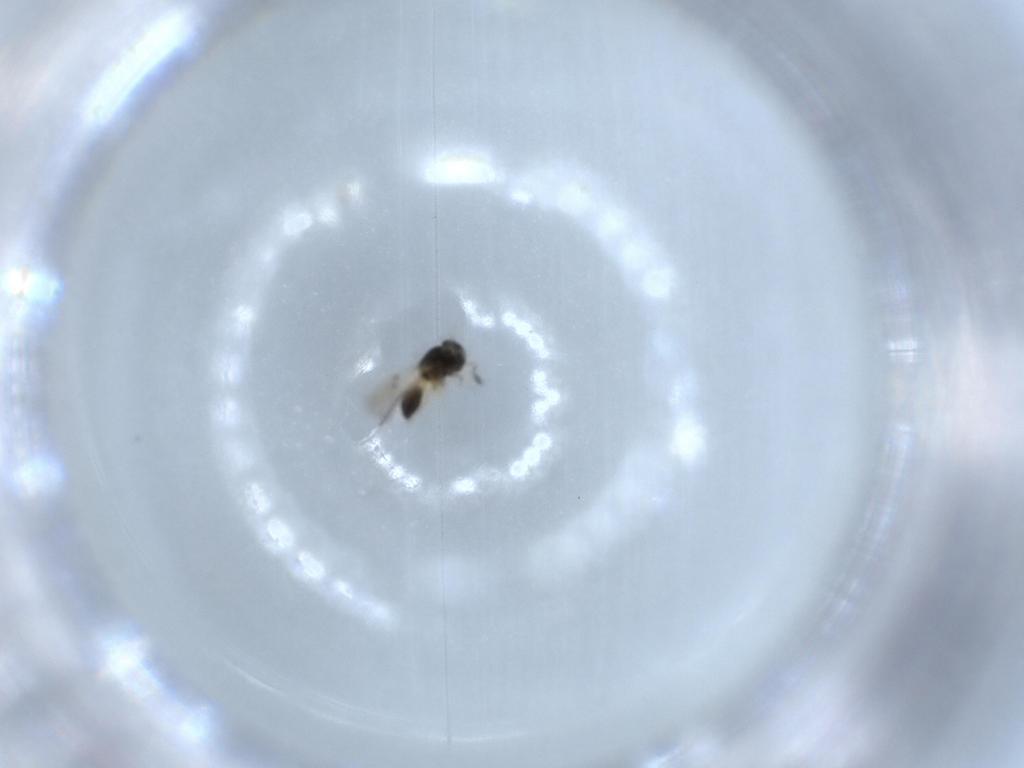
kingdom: Animalia
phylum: Arthropoda
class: Insecta
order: Hymenoptera
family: Scelionidae
